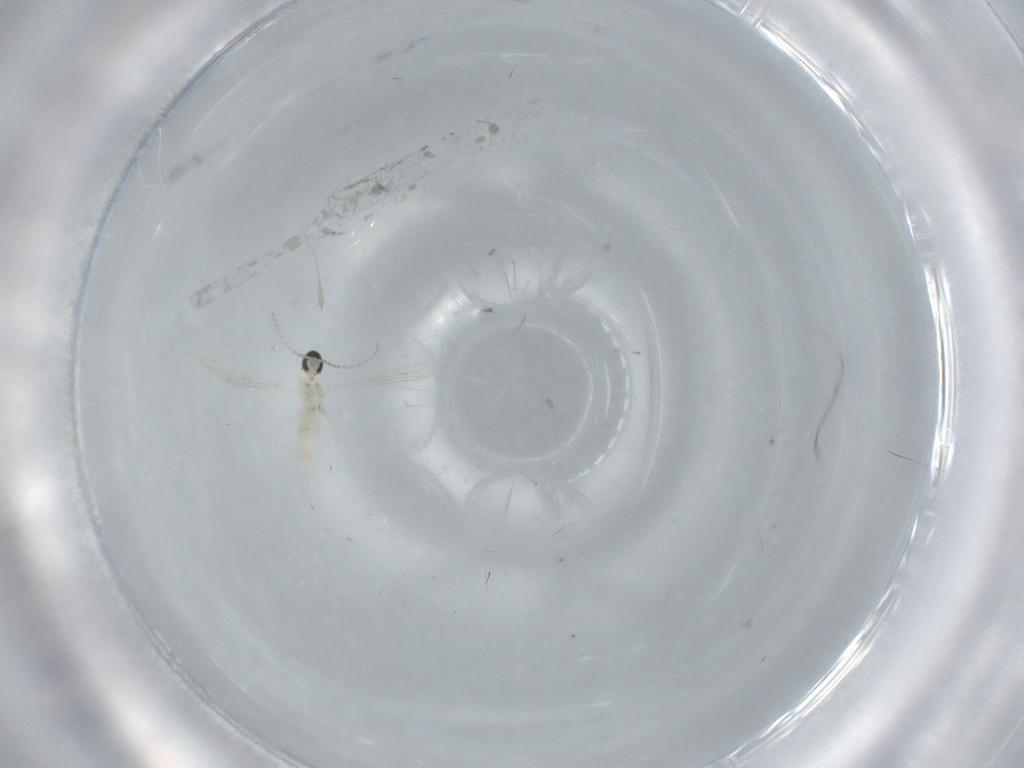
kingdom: Animalia
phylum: Arthropoda
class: Insecta
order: Diptera
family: Cecidomyiidae
